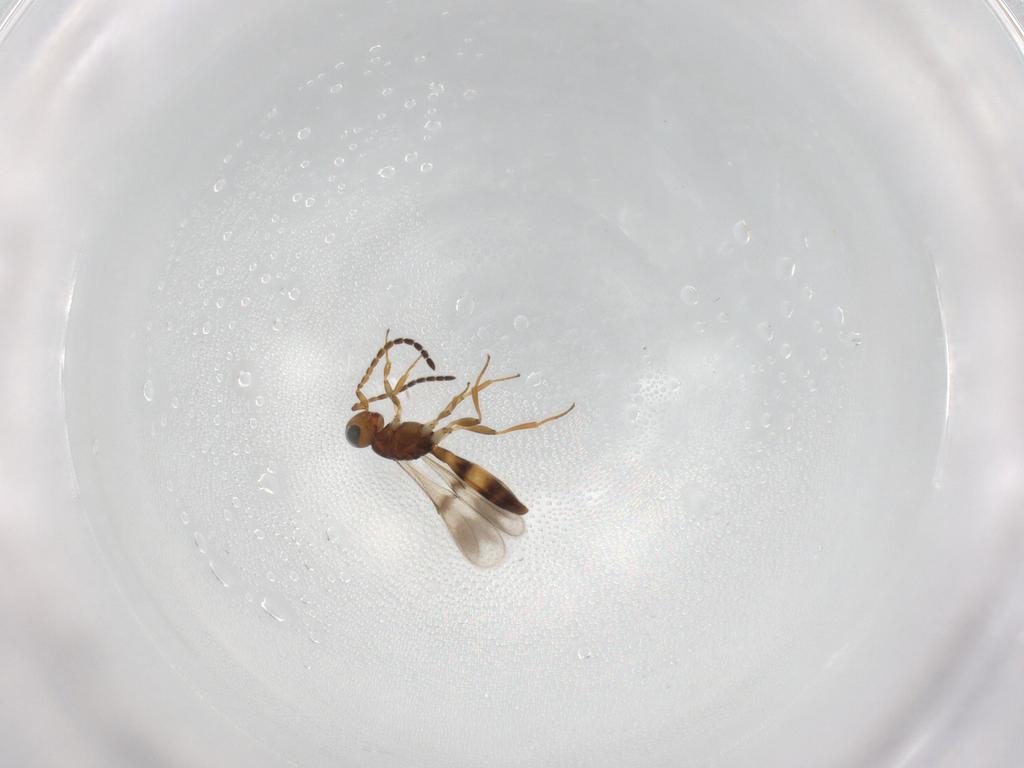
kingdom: Animalia
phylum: Arthropoda
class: Insecta
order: Hymenoptera
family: Scelionidae
